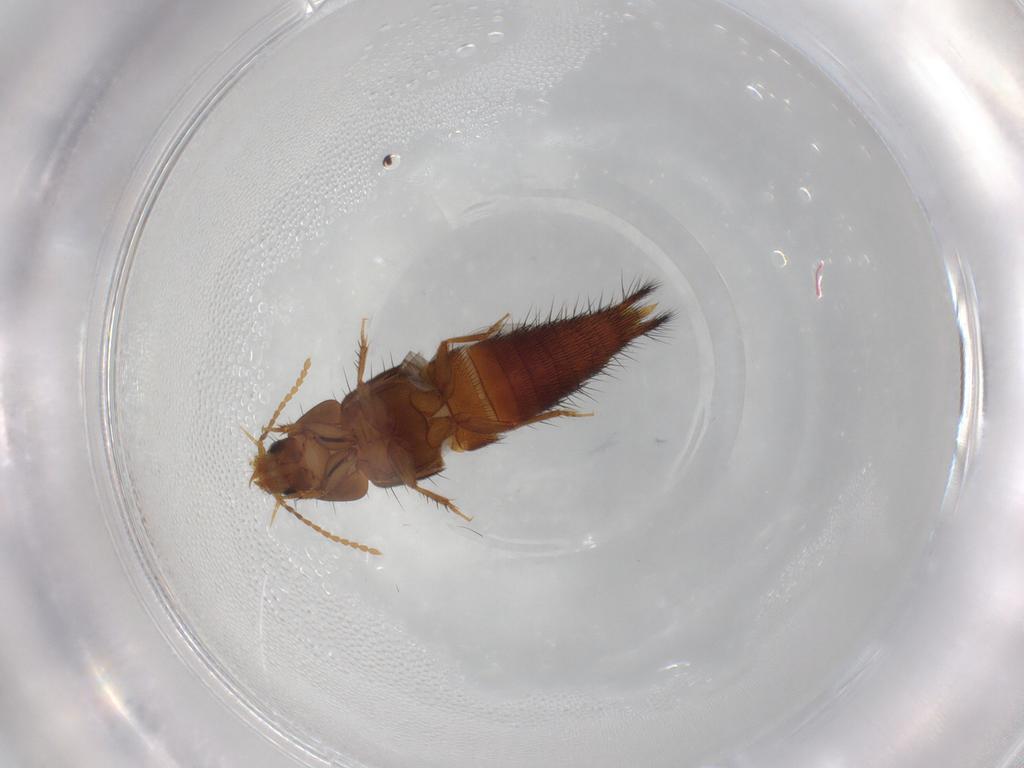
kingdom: Animalia
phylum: Arthropoda
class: Insecta
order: Coleoptera
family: Staphylinidae
